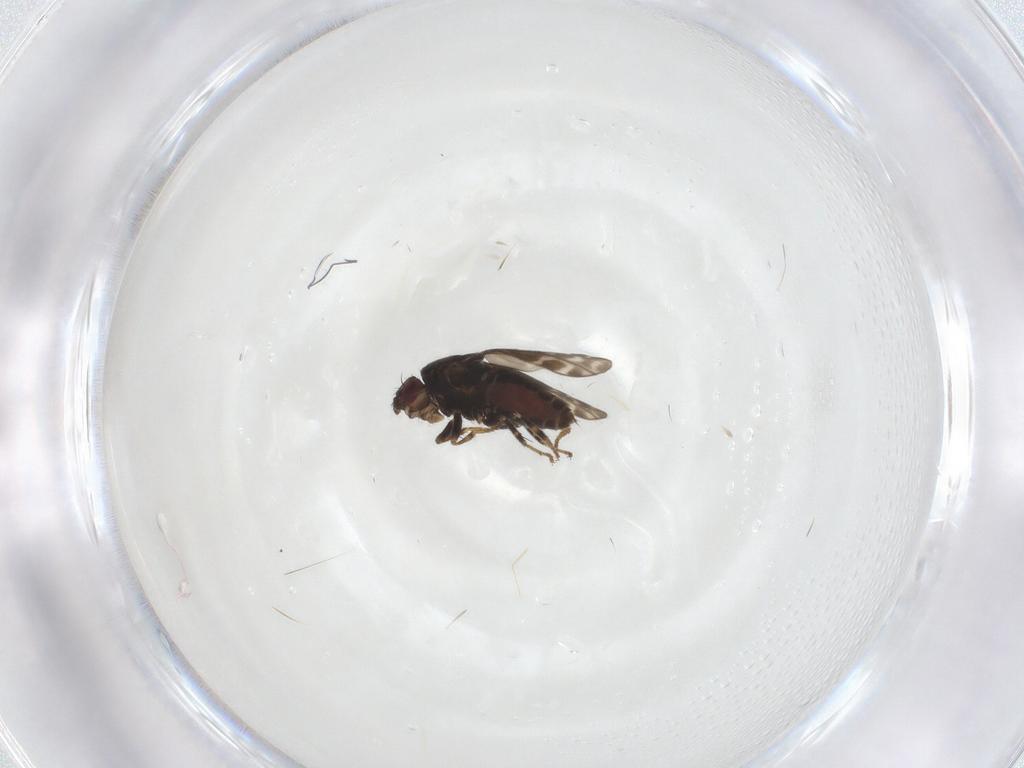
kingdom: Animalia
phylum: Arthropoda
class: Insecta
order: Diptera
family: Sphaeroceridae
